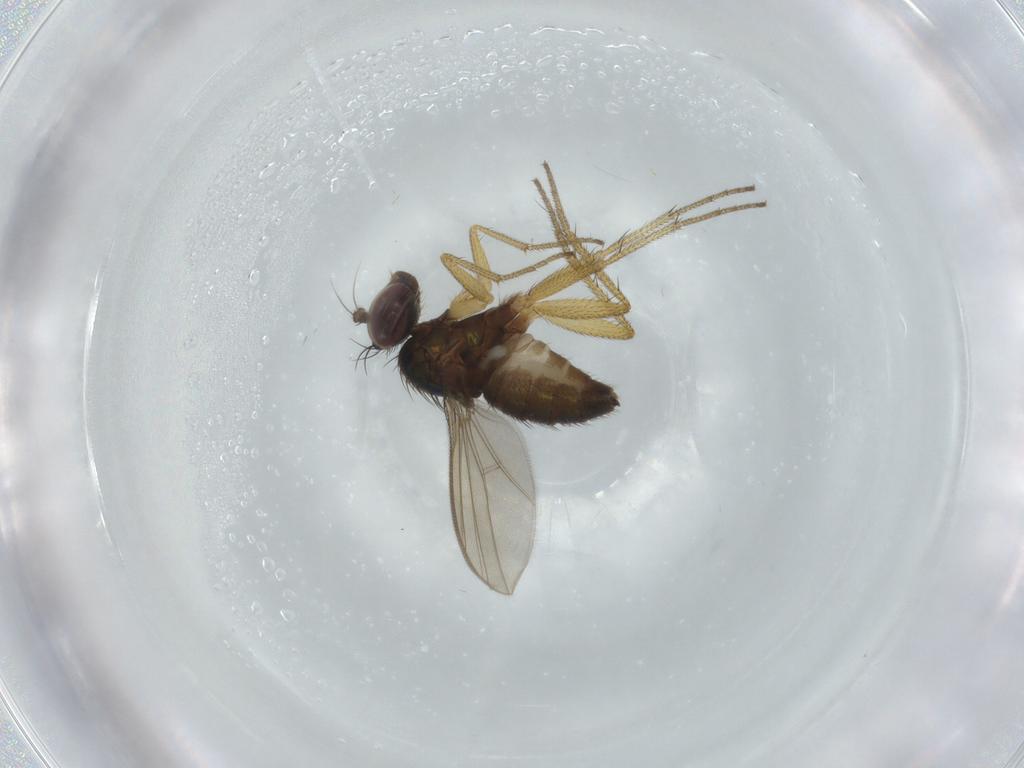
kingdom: Animalia
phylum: Arthropoda
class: Insecta
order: Diptera
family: Dolichopodidae
